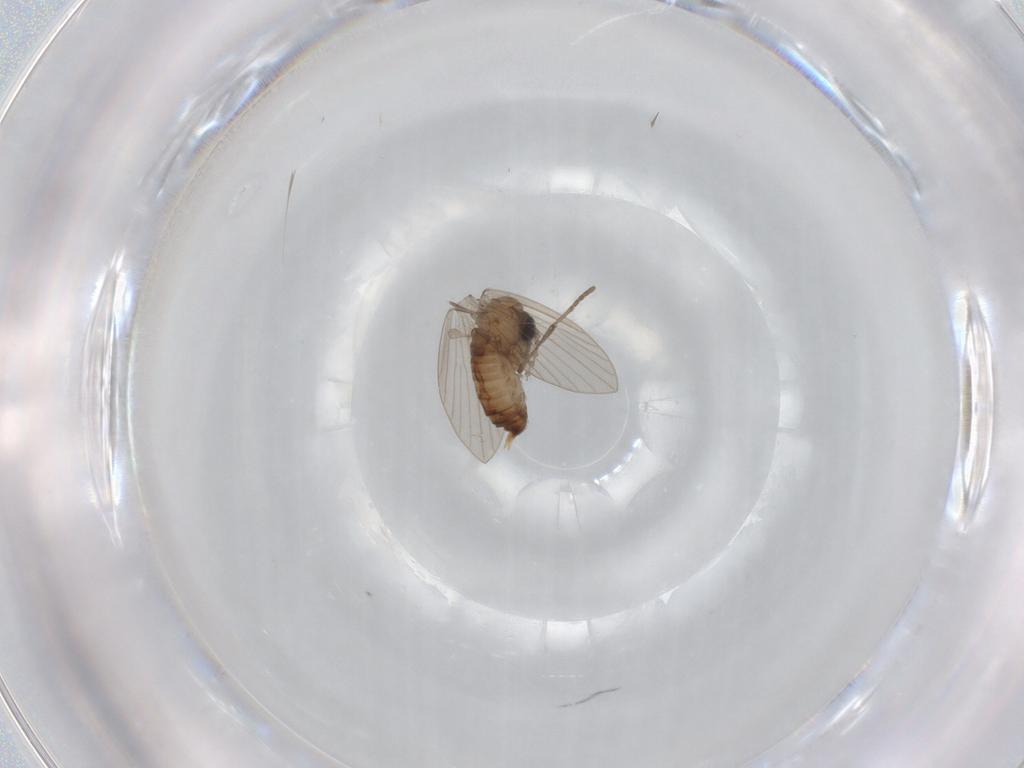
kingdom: Animalia
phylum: Arthropoda
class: Insecta
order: Diptera
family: Psychodidae
